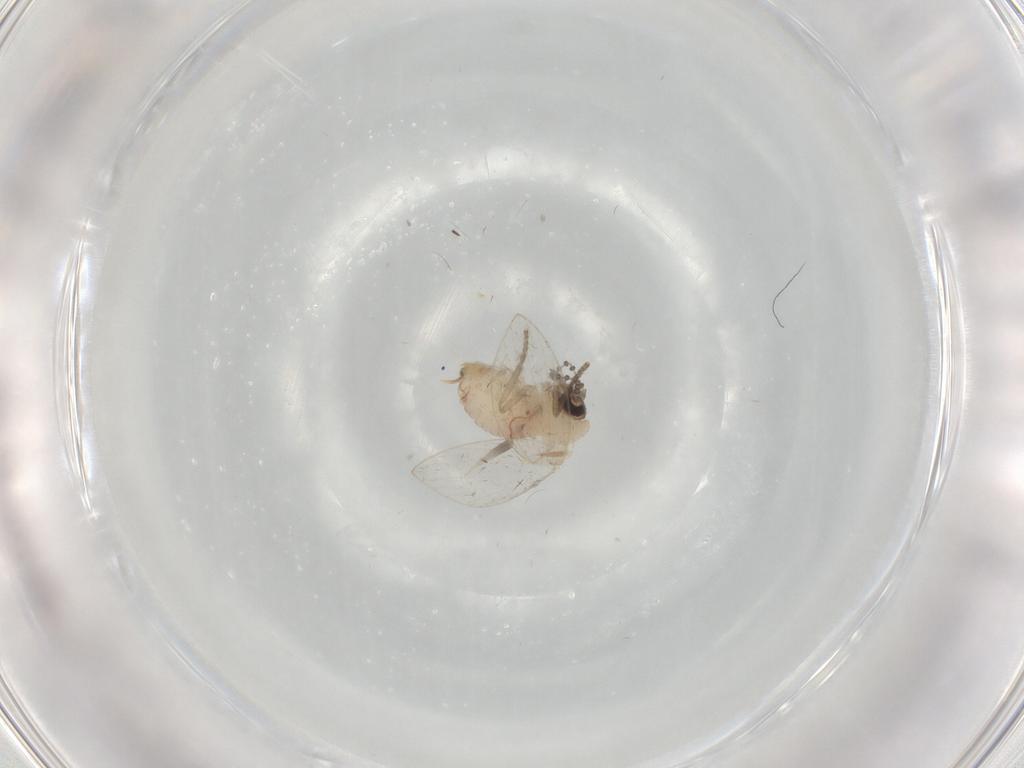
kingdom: Animalia
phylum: Arthropoda
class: Insecta
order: Diptera
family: Psychodidae
